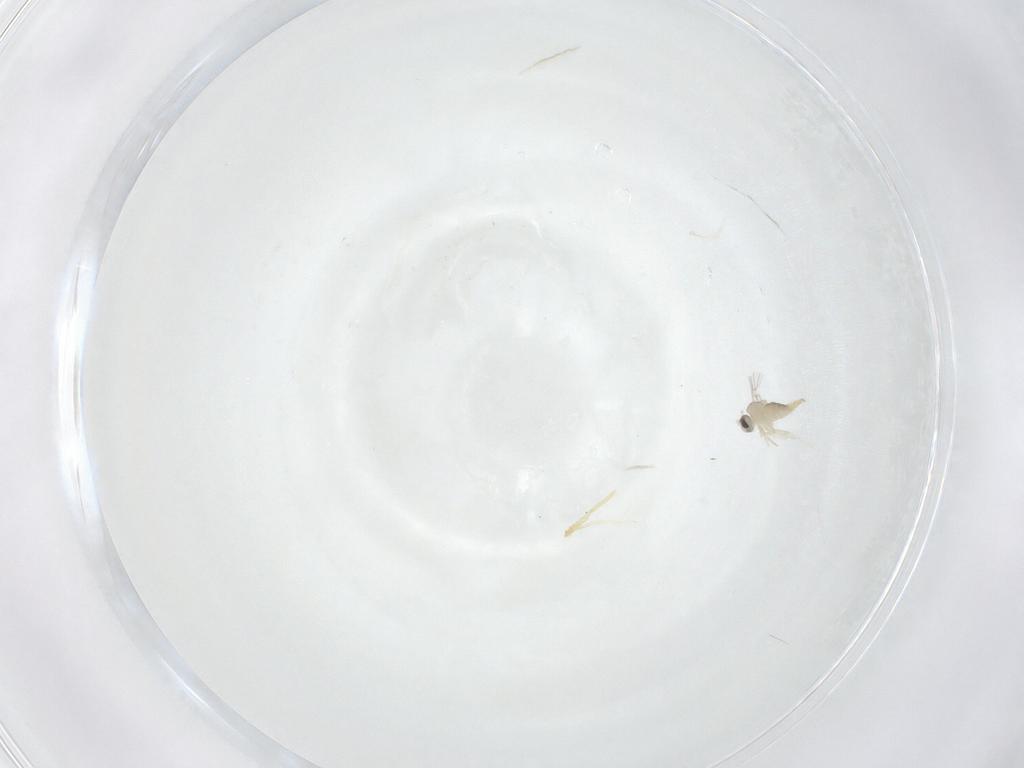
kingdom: Animalia
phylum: Arthropoda
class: Insecta
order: Diptera
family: Cecidomyiidae
